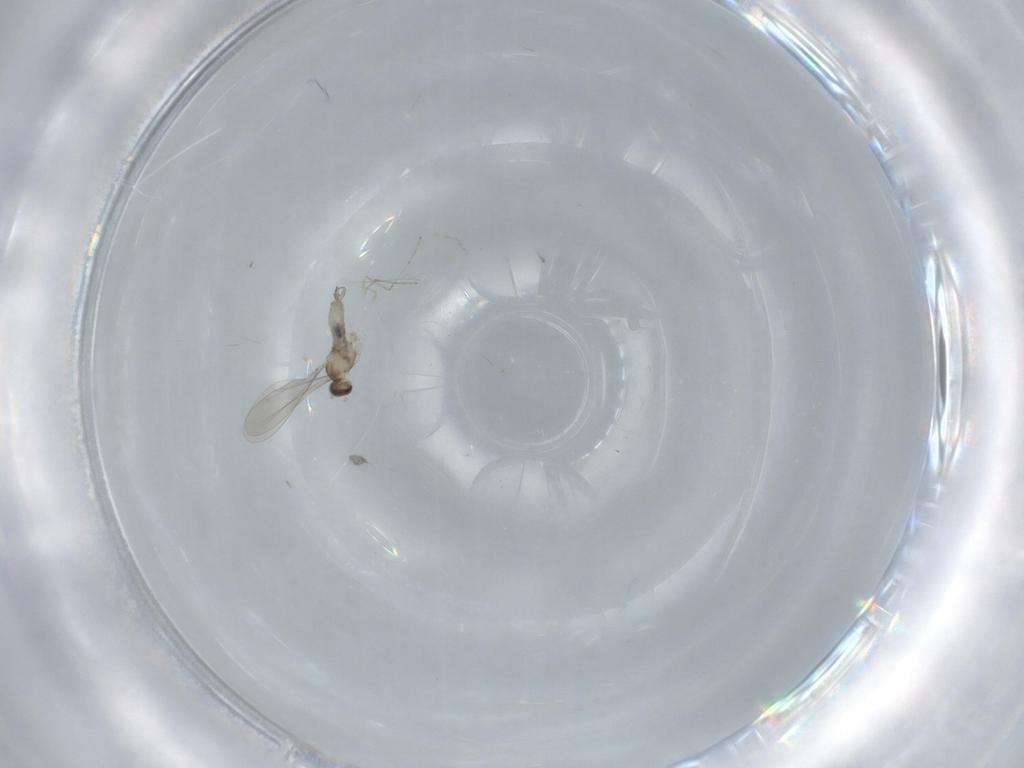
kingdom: Animalia
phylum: Arthropoda
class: Insecta
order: Diptera
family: Cecidomyiidae
